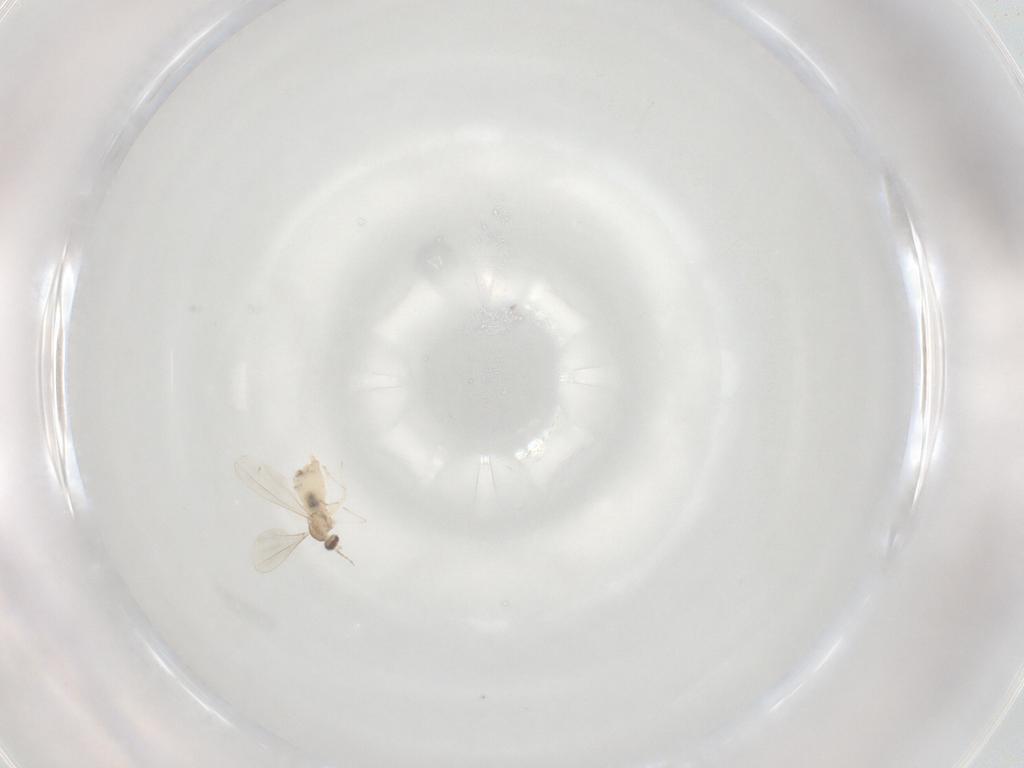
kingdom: Animalia
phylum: Arthropoda
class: Insecta
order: Diptera
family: Cecidomyiidae
